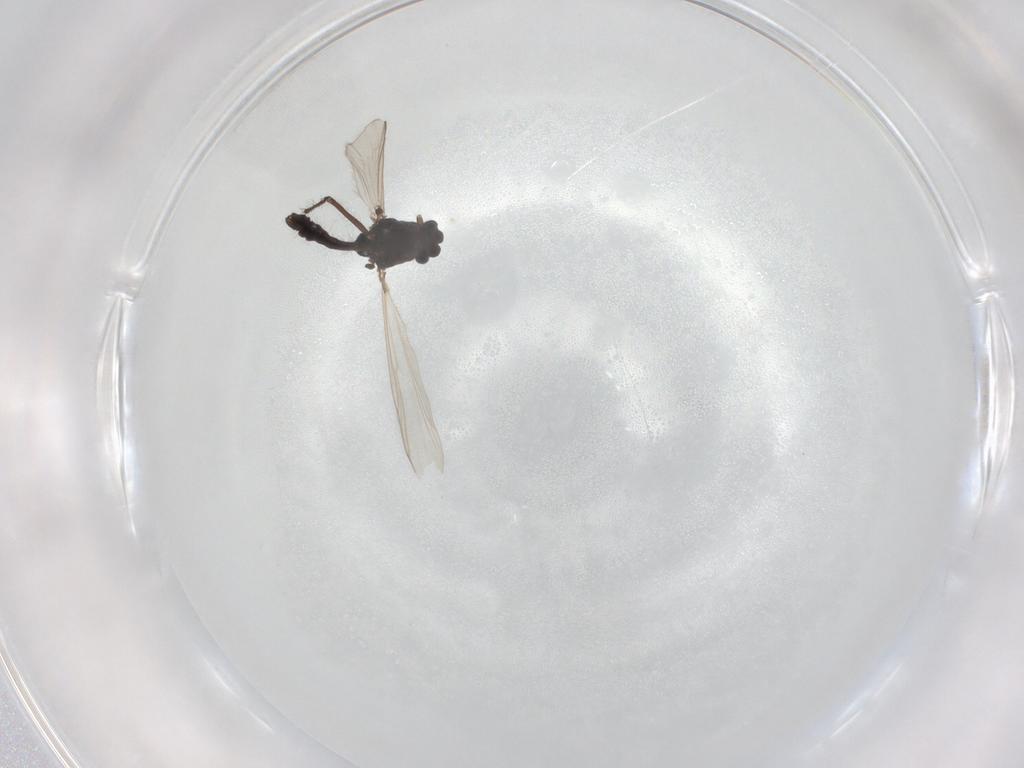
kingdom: Animalia
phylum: Arthropoda
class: Insecta
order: Diptera
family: Chironomidae
